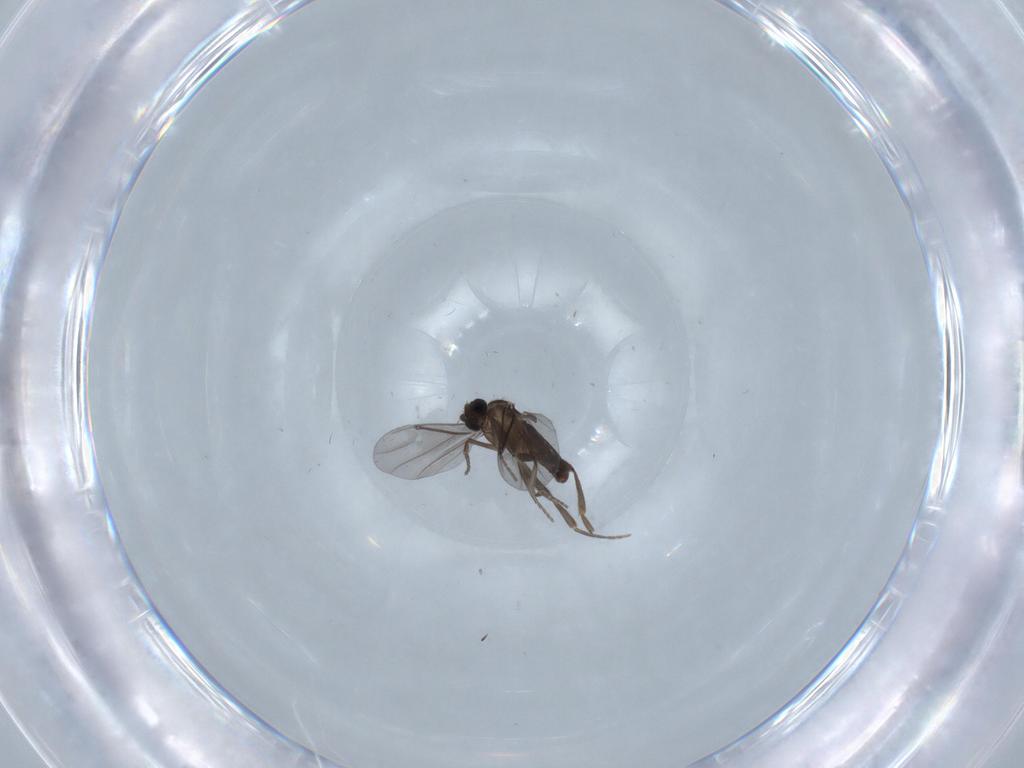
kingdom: Animalia
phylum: Arthropoda
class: Insecta
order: Diptera
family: Phoridae
